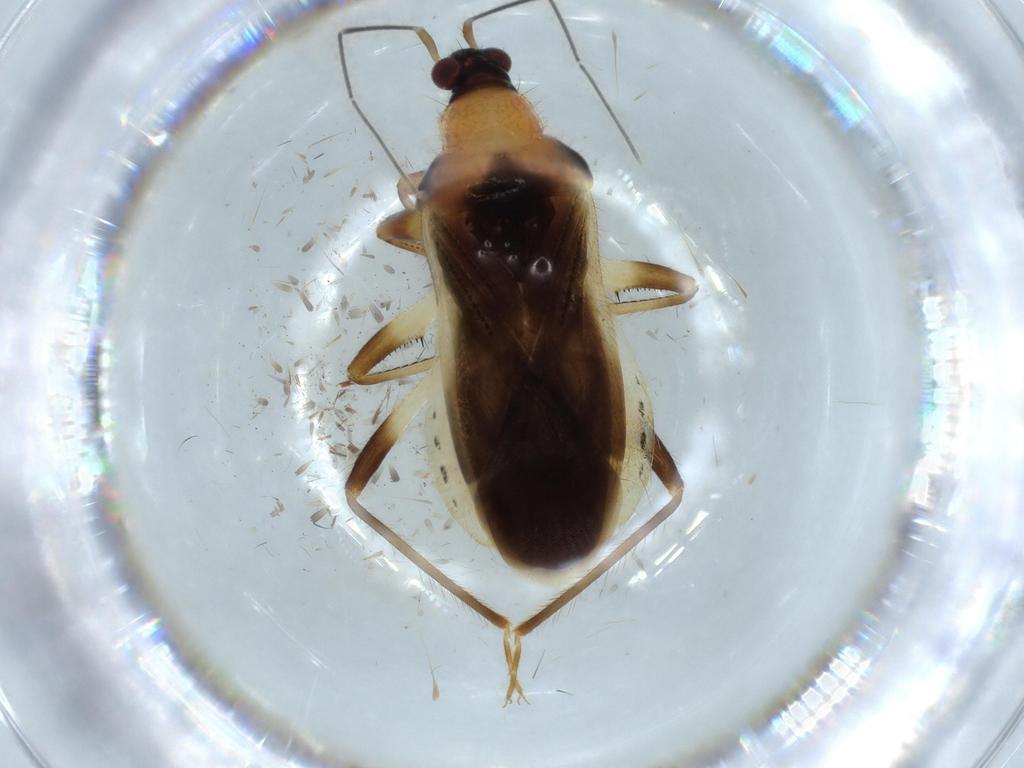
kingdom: Animalia
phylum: Arthropoda
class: Insecta
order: Hemiptera
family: Nabidae
